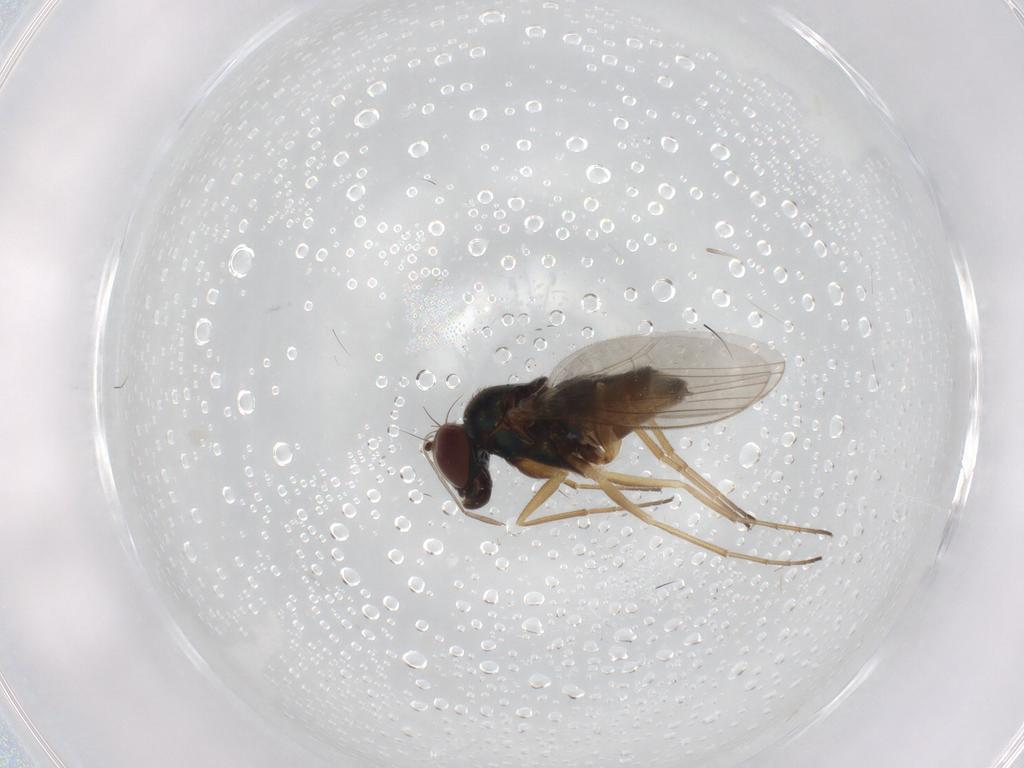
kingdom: Animalia
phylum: Arthropoda
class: Insecta
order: Diptera
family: Dolichopodidae
